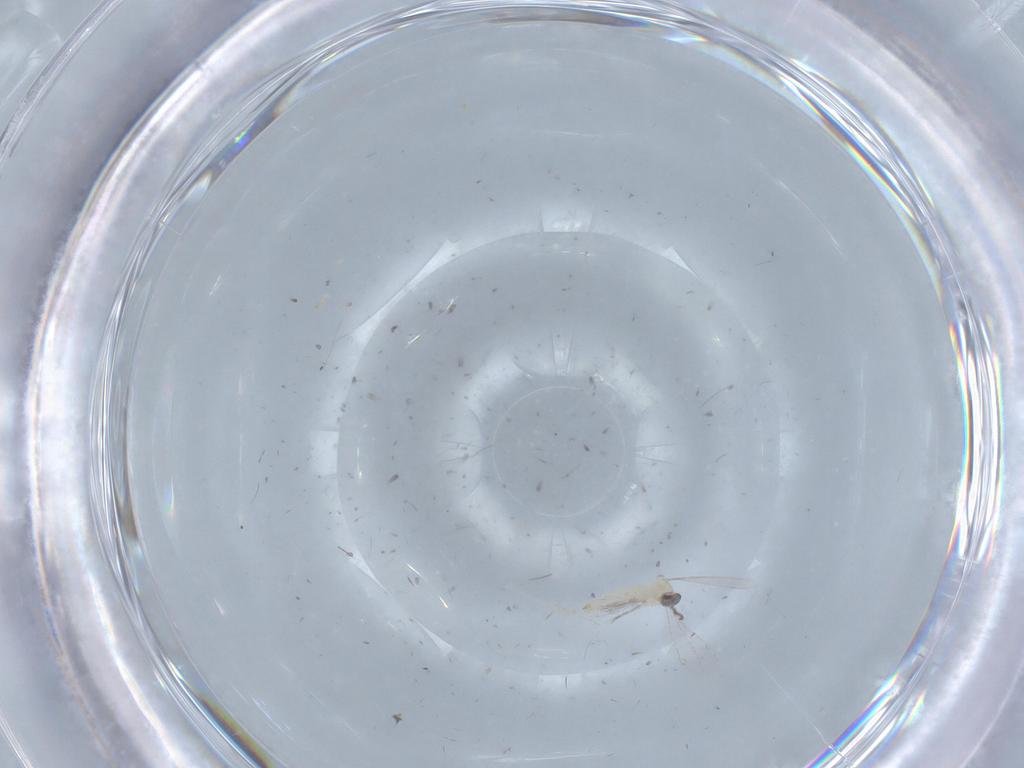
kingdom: Animalia
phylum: Arthropoda
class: Insecta
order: Diptera
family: Cecidomyiidae
